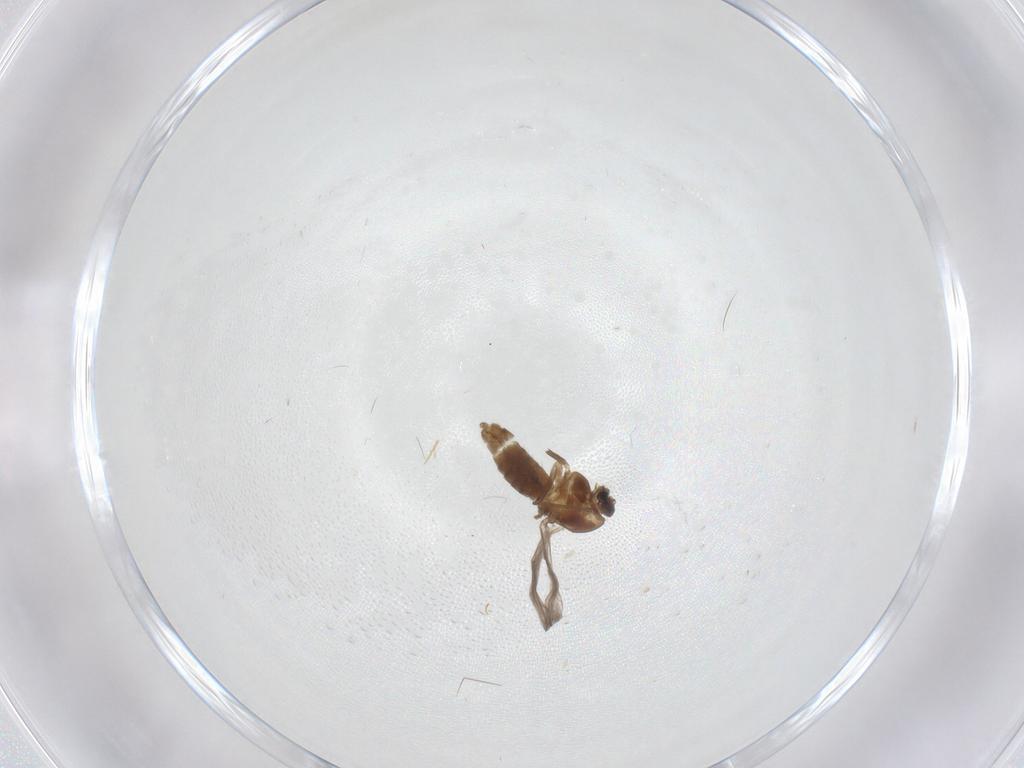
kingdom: Animalia
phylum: Arthropoda
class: Insecta
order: Diptera
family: Chironomidae
